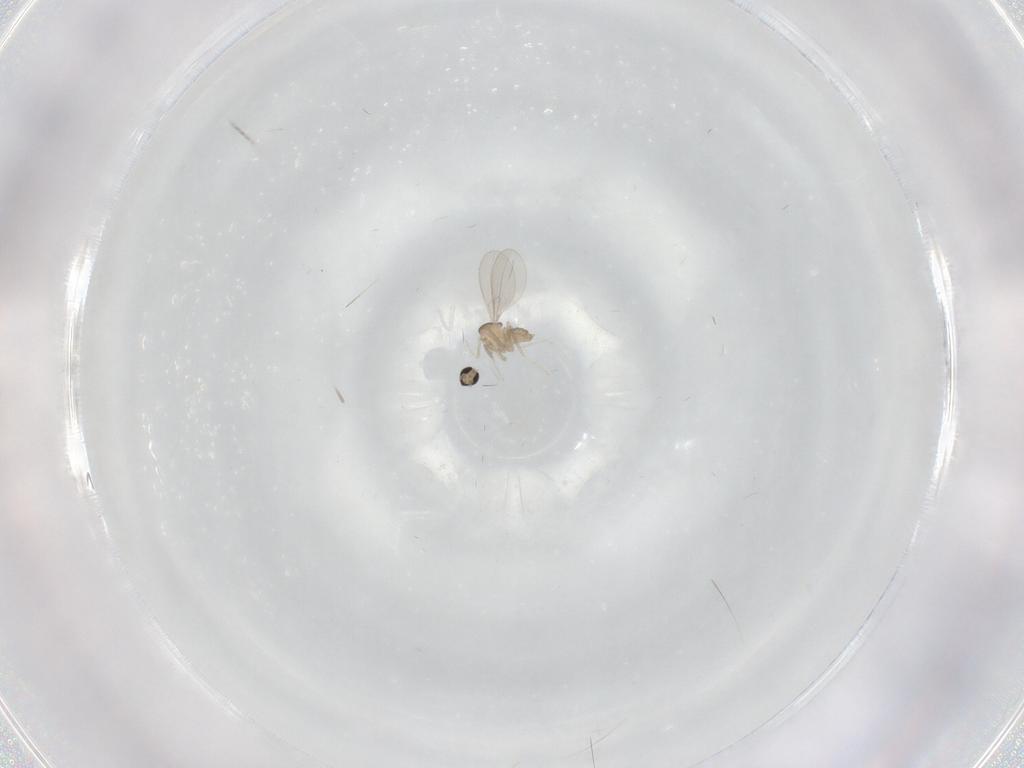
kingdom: Animalia
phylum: Arthropoda
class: Insecta
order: Diptera
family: Cecidomyiidae
